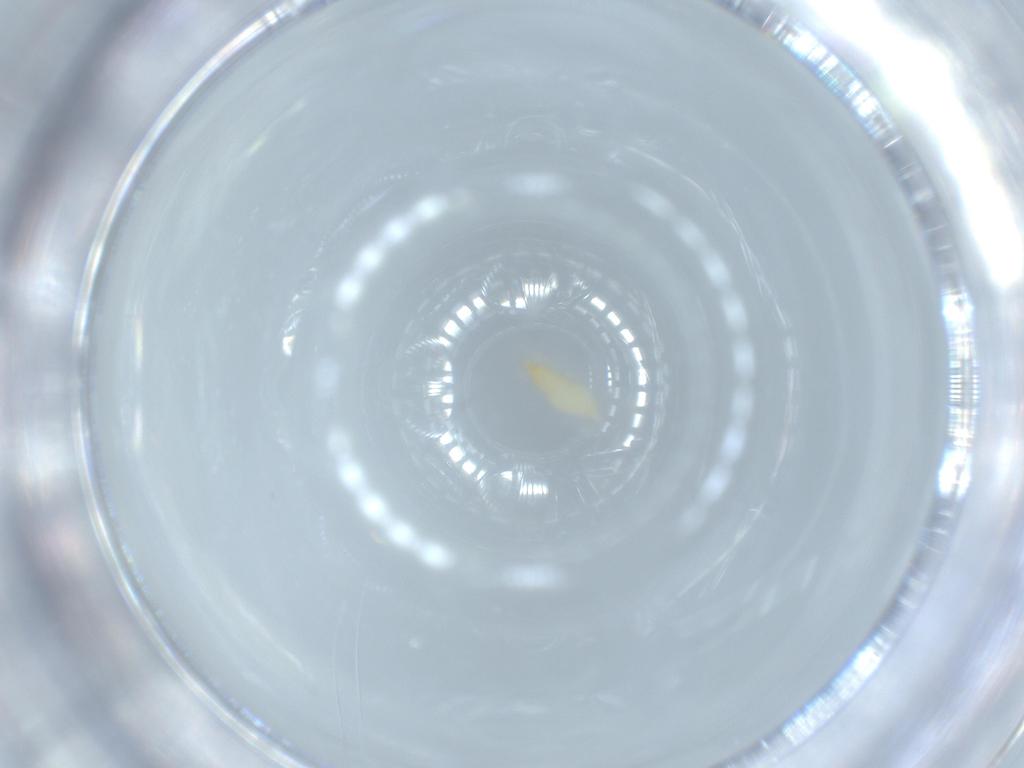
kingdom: Animalia
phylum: Arthropoda
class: Insecta
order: Thysanoptera
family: Thripidae
